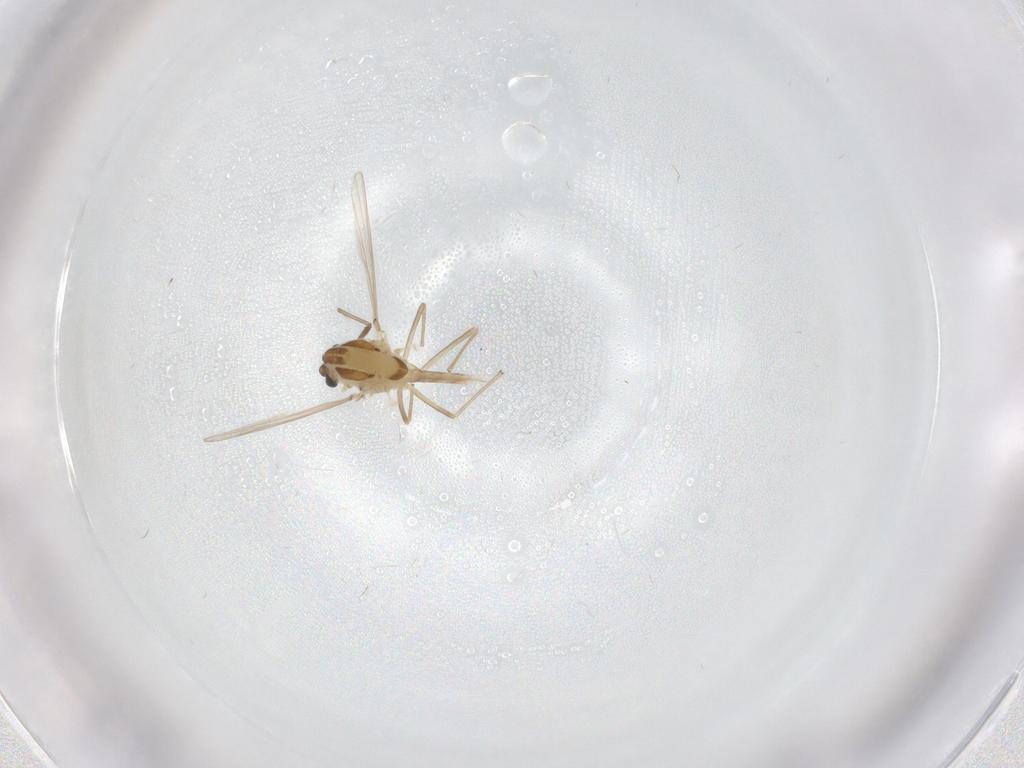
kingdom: Animalia
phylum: Arthropoda
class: Insecta
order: Diptera
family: Chironomidae
